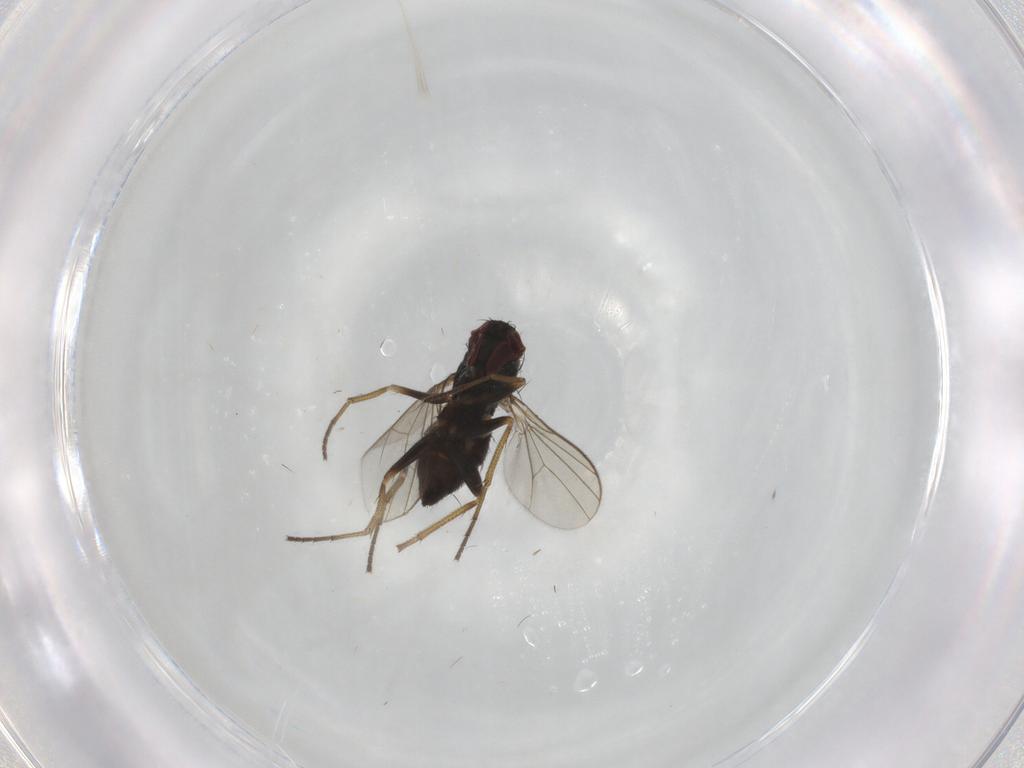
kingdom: Animalia
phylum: Arthropoda
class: Insecta
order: Diptera
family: Dolichopodidae
